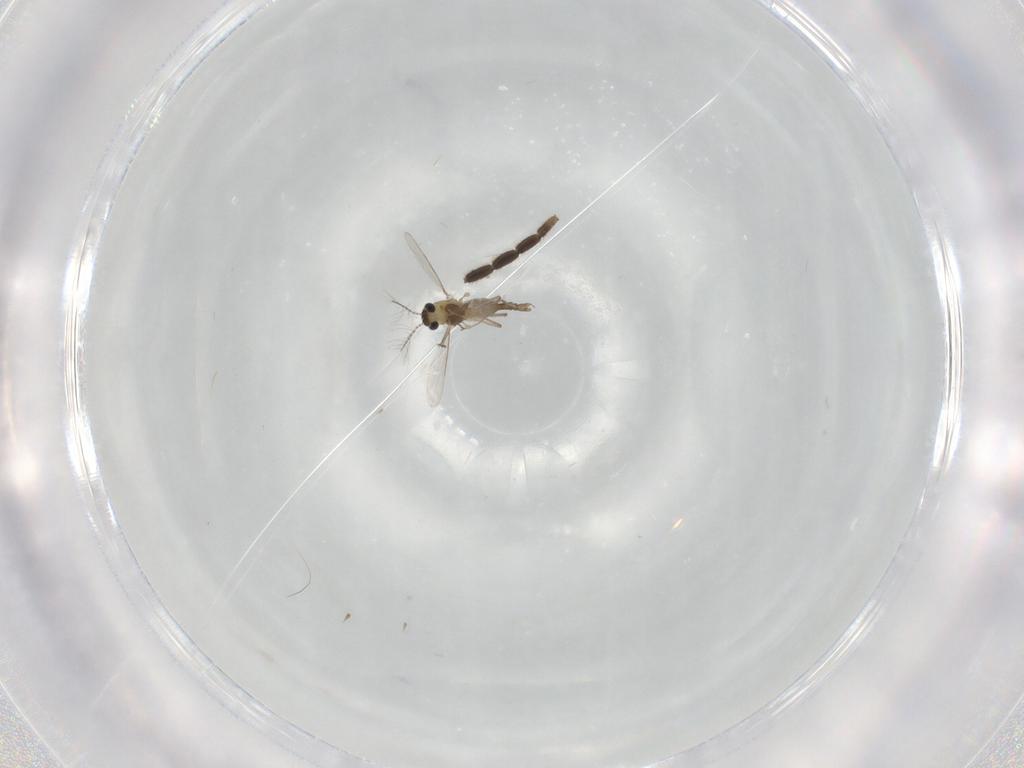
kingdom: Animalia
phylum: Arthropoda
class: Insecta
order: Diptera
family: Chironomidae
